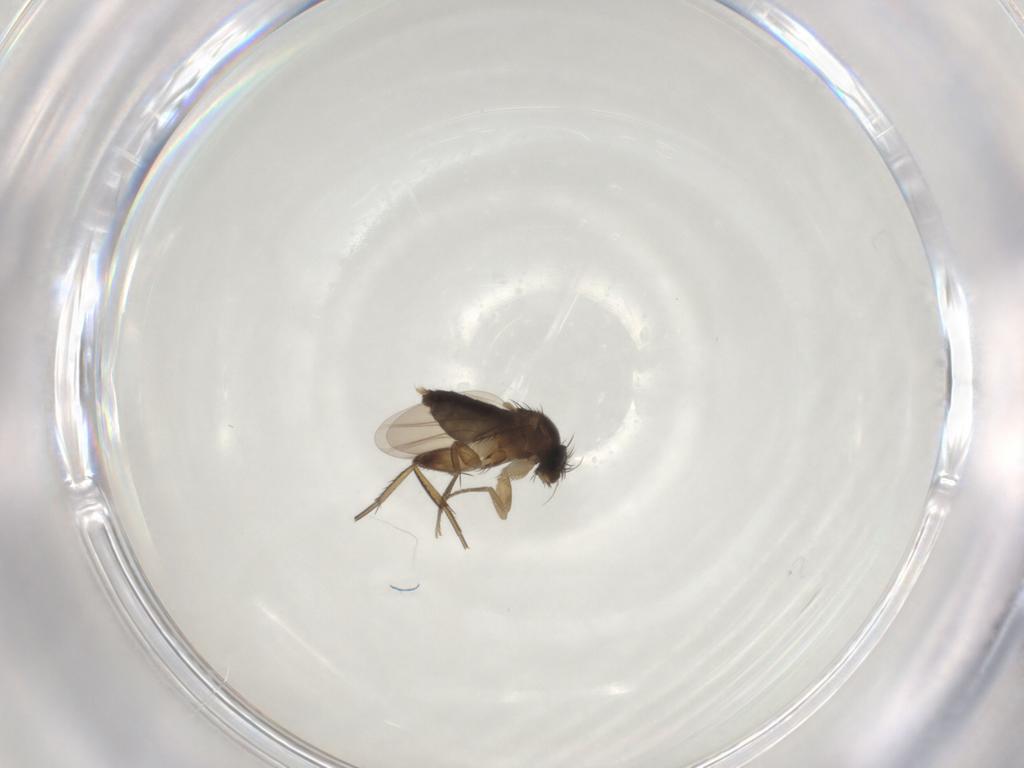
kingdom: Animalia
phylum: Arthropoda
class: Insecta
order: Diptera
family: Phoridae
